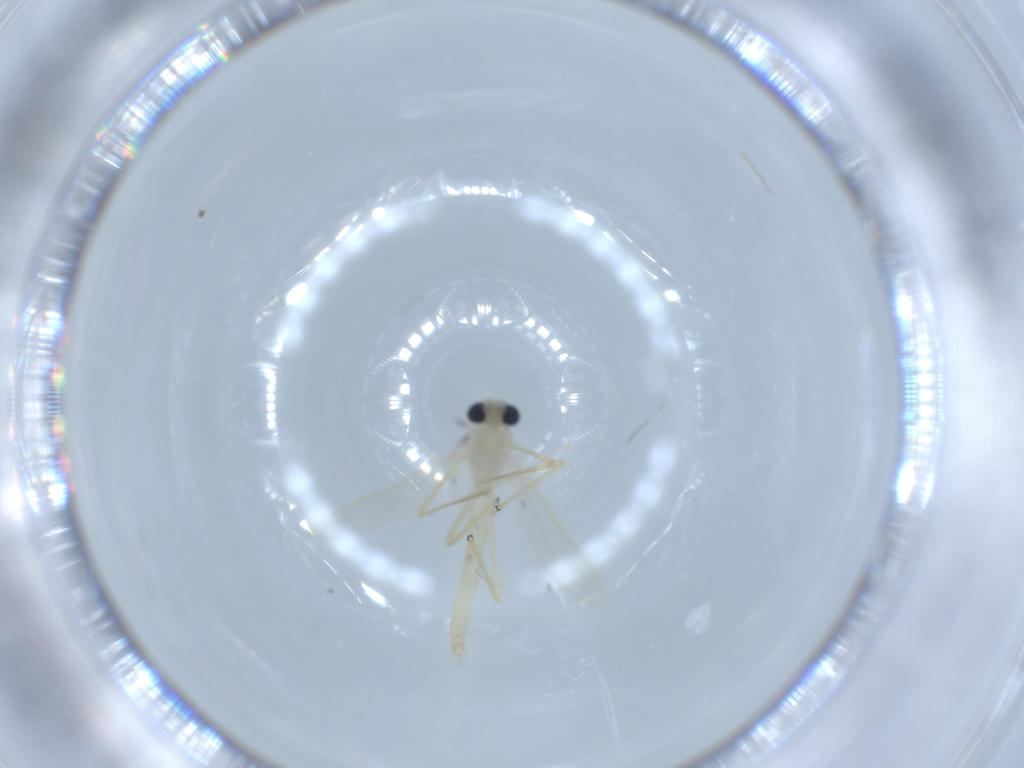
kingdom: Animalia
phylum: Arthropoda
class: Insecta
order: Diptera
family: Chironomidae
